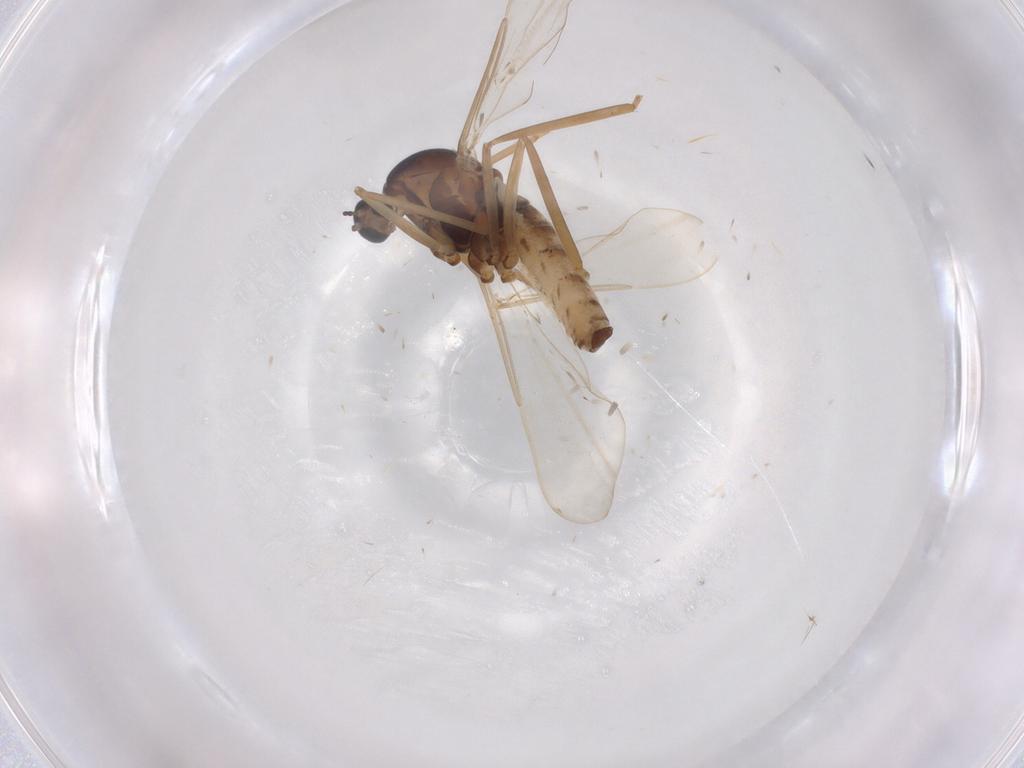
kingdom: Animalia
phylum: Arthropoda
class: Insecta
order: Diptera
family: Cecidomyiidae
